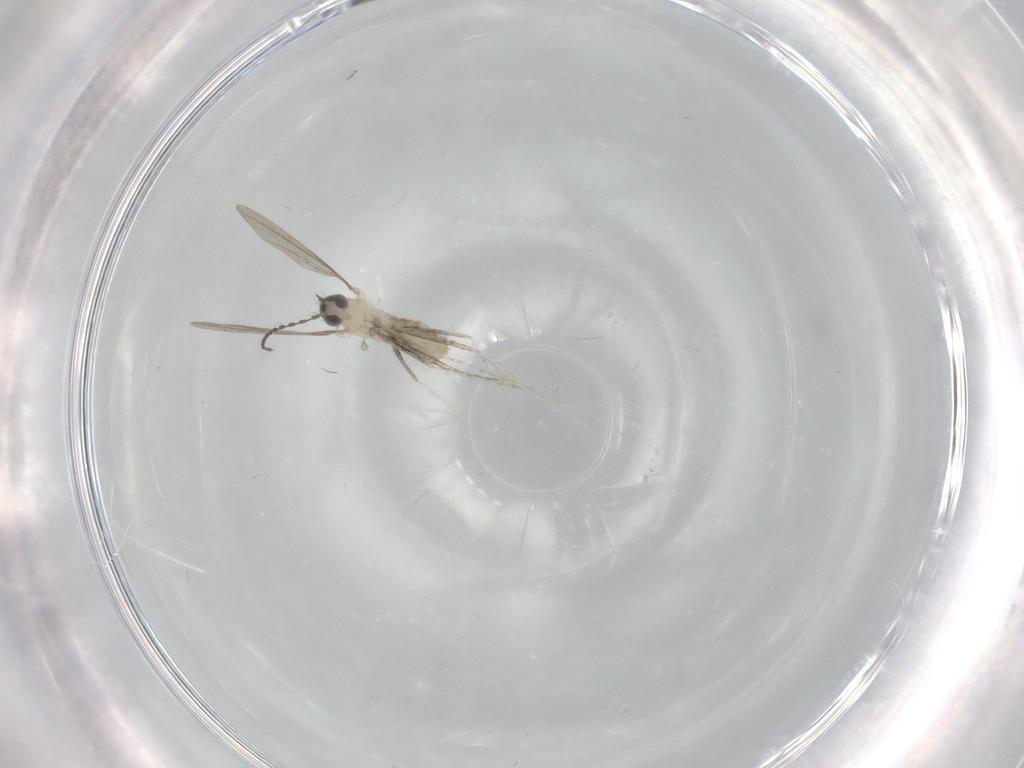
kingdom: Animalia
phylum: Arthropoda
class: Insecta
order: Diptera
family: Cecidomyiidae
